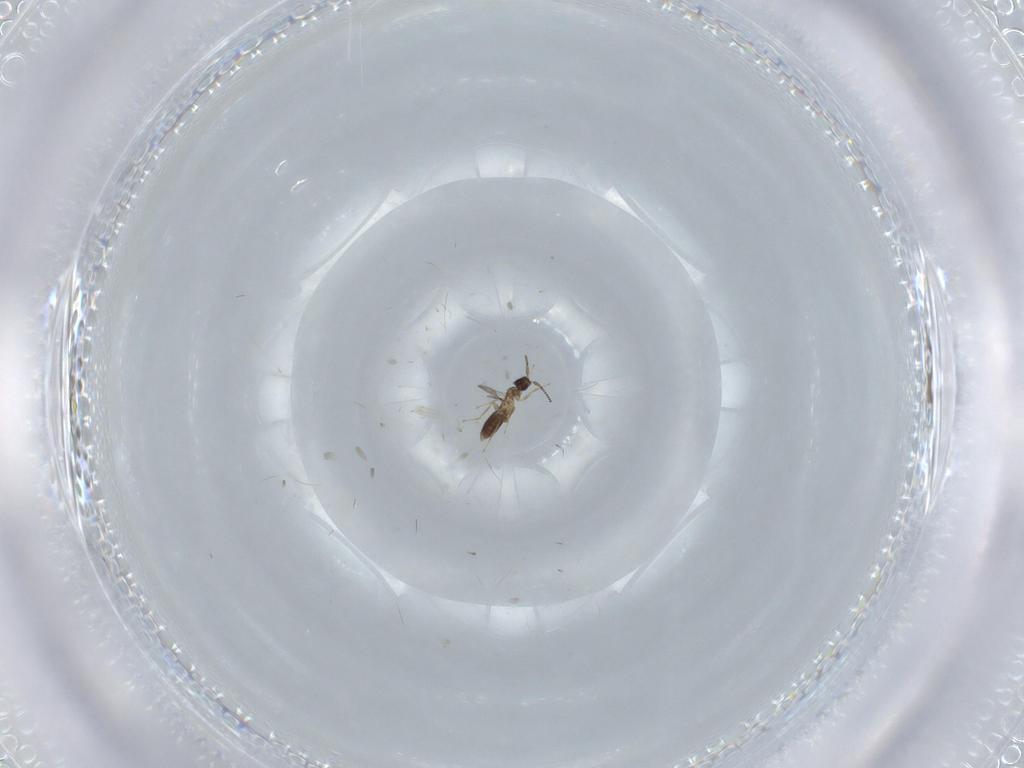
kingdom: Animalia
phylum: Arthropoda
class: Insecta
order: Hymenoptera
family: Mymaridae
